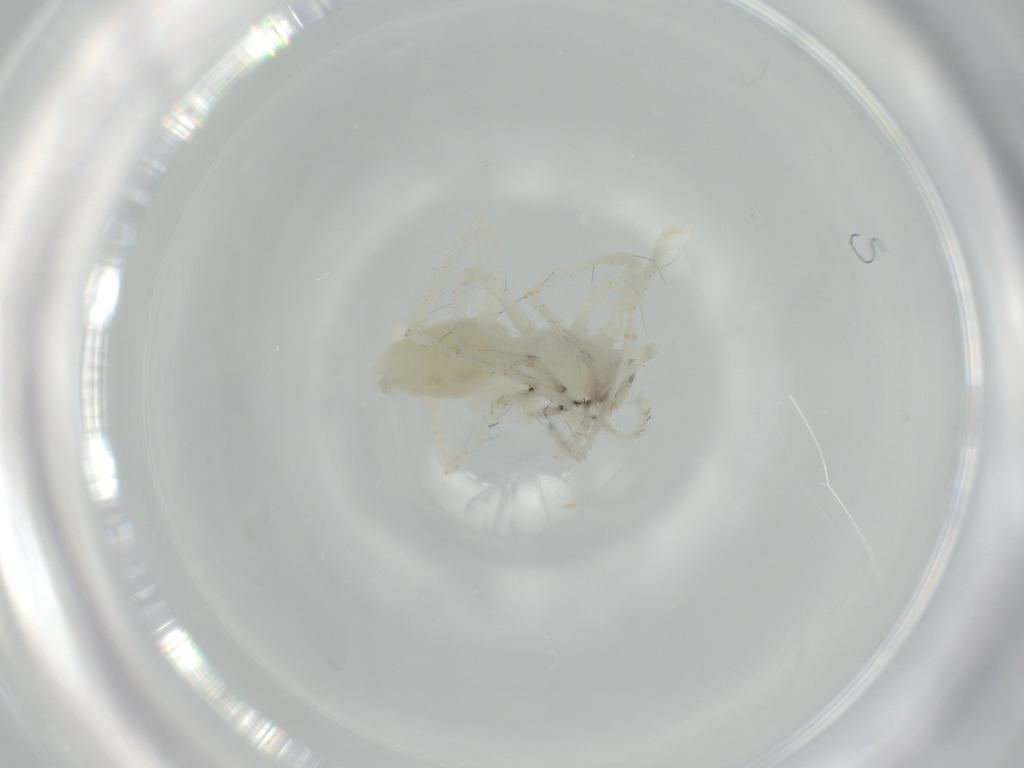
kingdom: Animalia
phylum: Arthropoda
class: Arachnida
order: Araneae
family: Anyphaenidae
